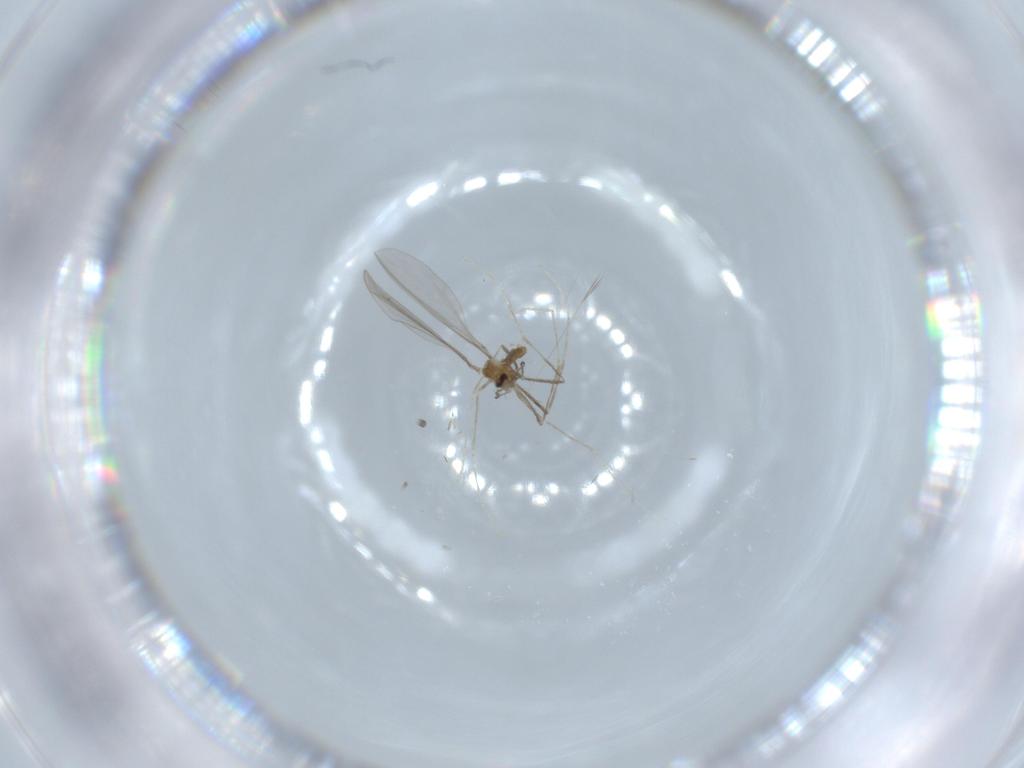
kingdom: Animalia
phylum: Arthropoda
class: Insecta
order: Diptera
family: Cecidomyiidae
